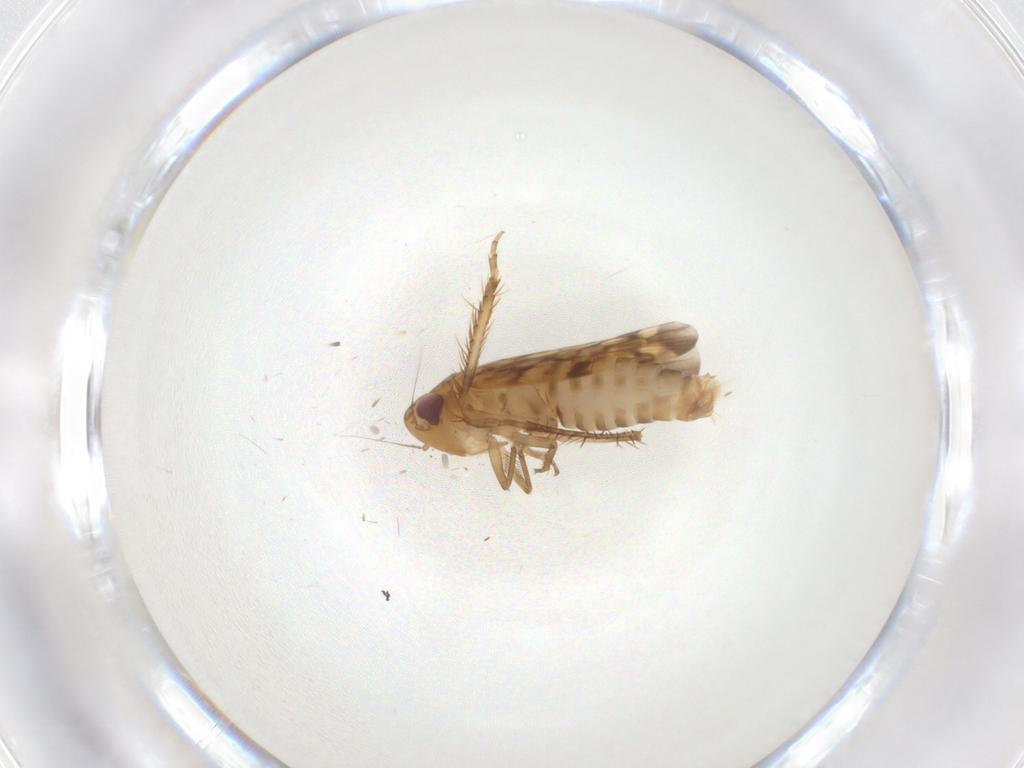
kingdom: Animalia
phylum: Arthropoda
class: Insecta
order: Hemiptera
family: Cicadellidae
